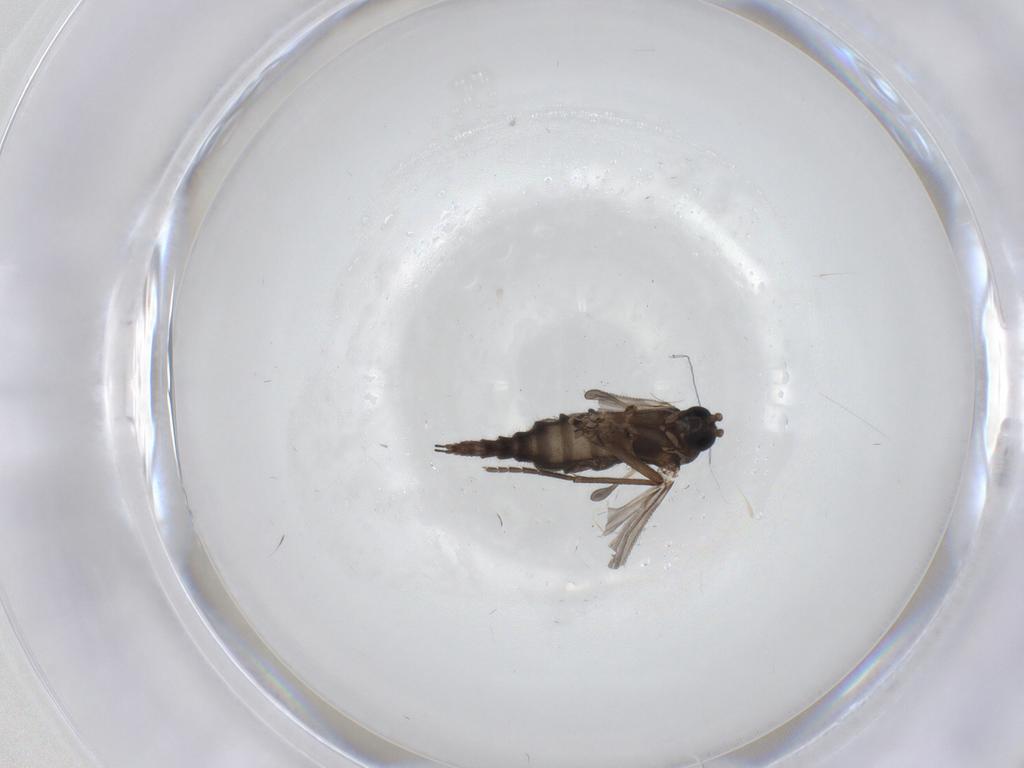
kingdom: Animalia
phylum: Arthropoda
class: Insecta
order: Diptera
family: Sciaridae
